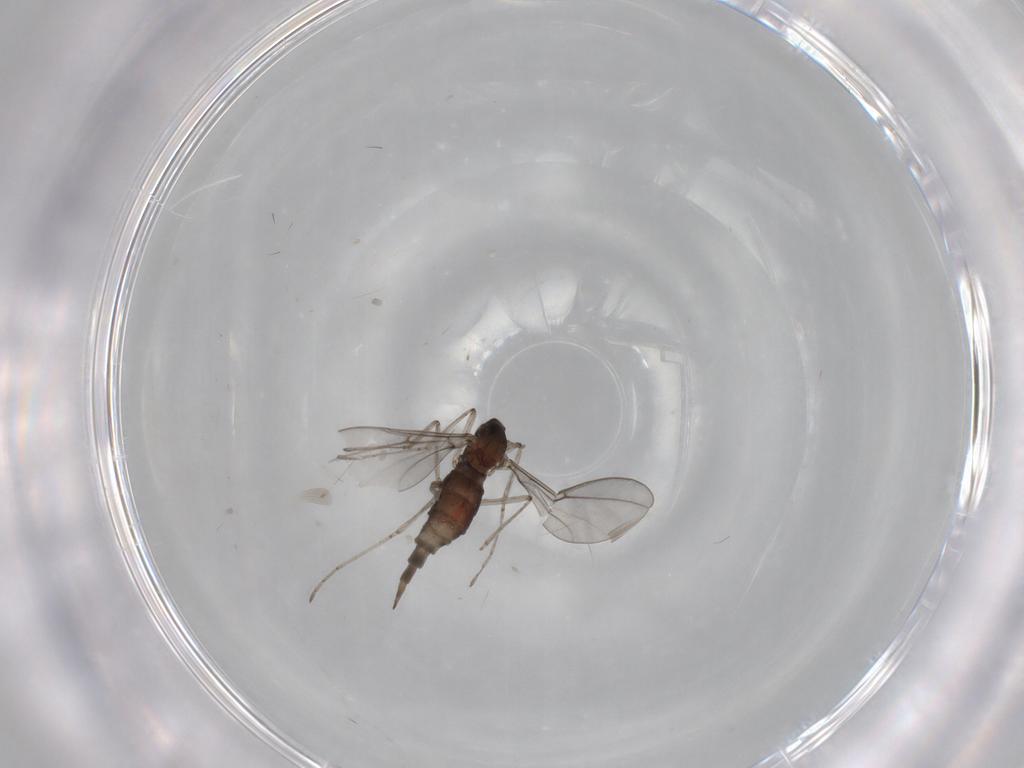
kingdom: Animalia
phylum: Arthropoda
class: Insecta
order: Diptera
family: Cecidomyiidae
